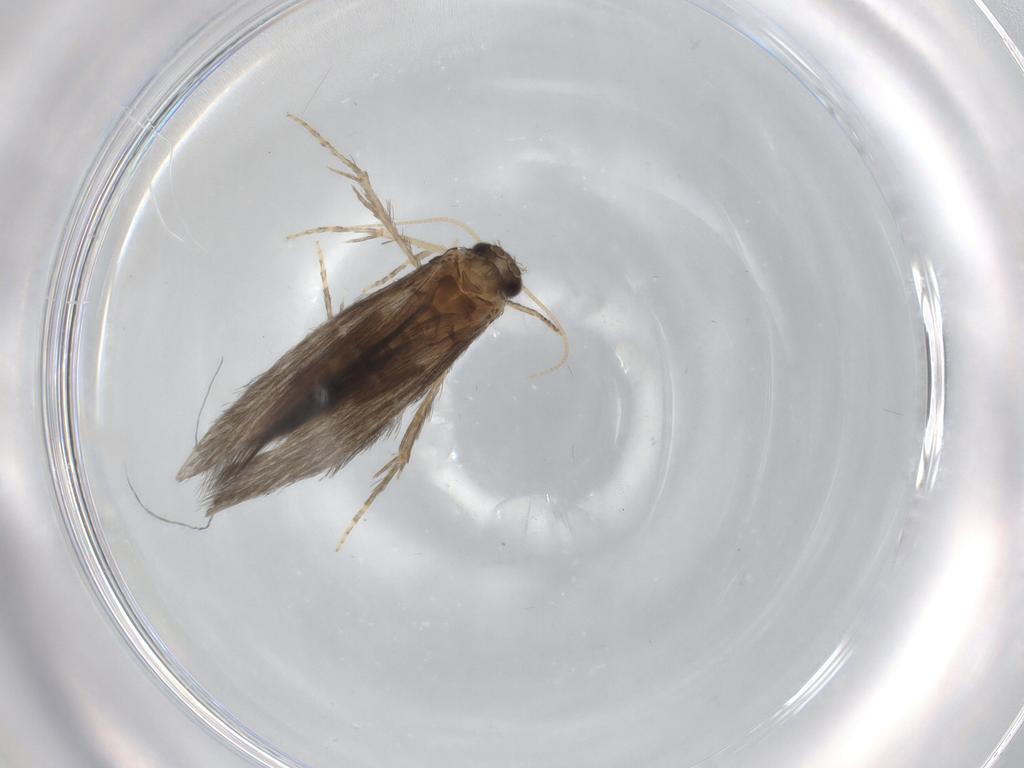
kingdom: Animalia
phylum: Arthropoda
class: Insecta
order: Trichoptera
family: Hydroptilidae
